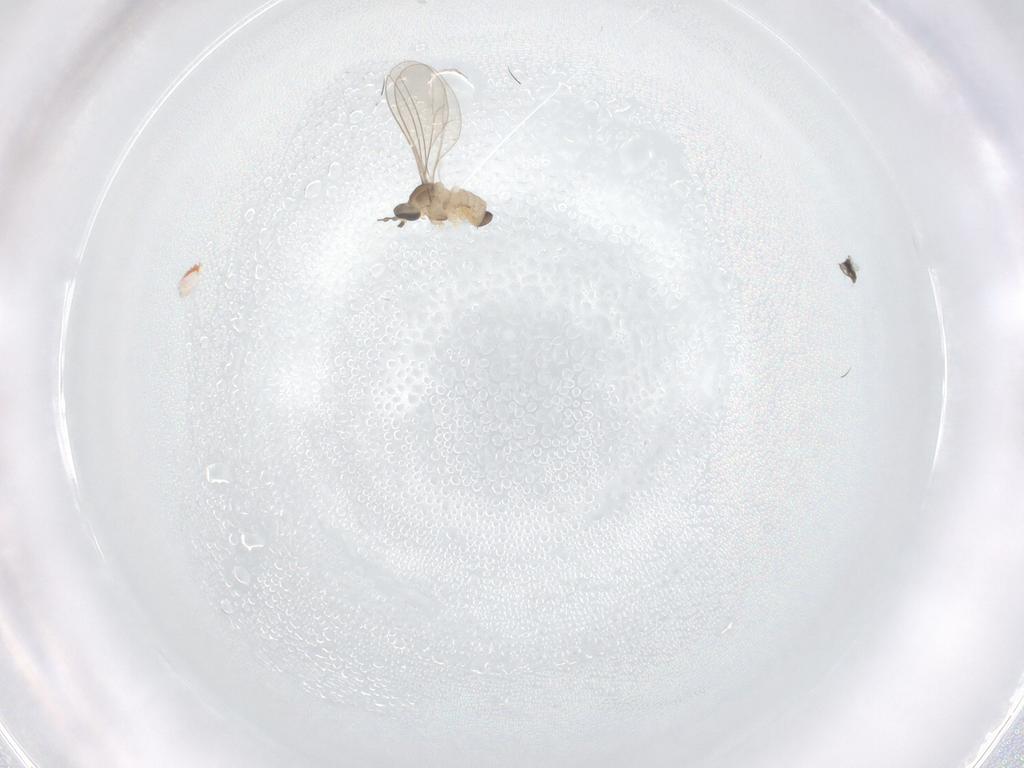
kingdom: Animalia
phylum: Arthropoda
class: Insecta
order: Diptera
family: Cecidomyiidae
